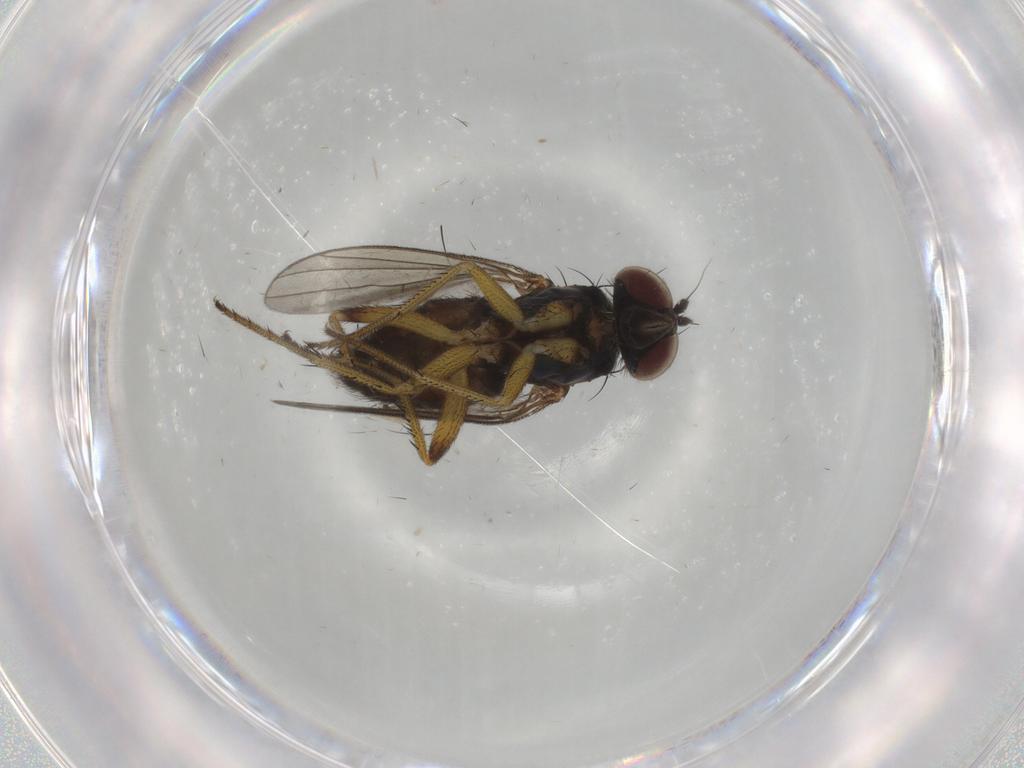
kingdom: Animalia
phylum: Arthropoda
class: Insecta
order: Diptera
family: Dolichopodidae
